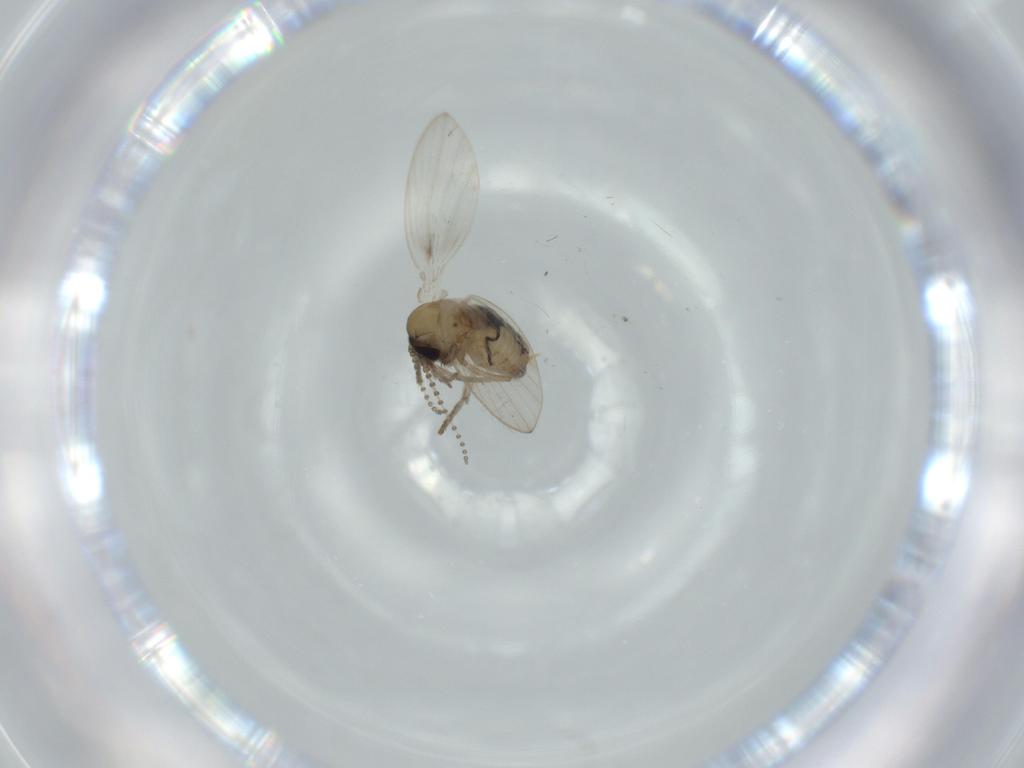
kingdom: Animalia
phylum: Arthropoda
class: Insecta
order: Diptera
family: Psychodidae
